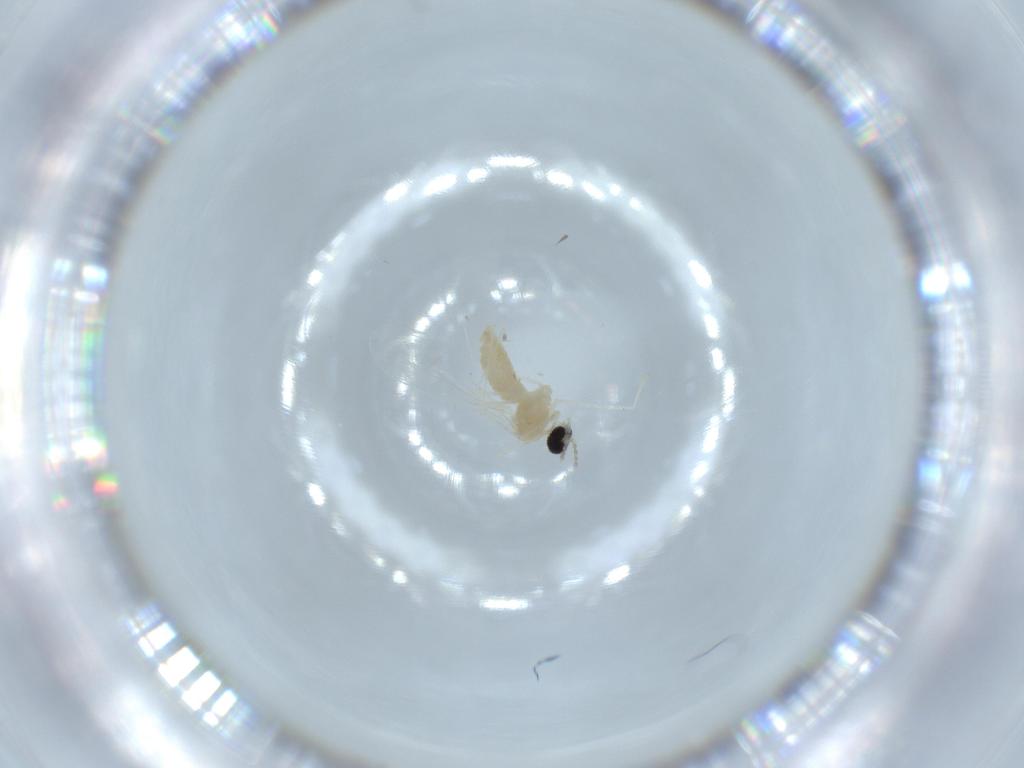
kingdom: Animalia
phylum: Arthropoda
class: Insecta
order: Diptera
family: Cecidomyiidae
